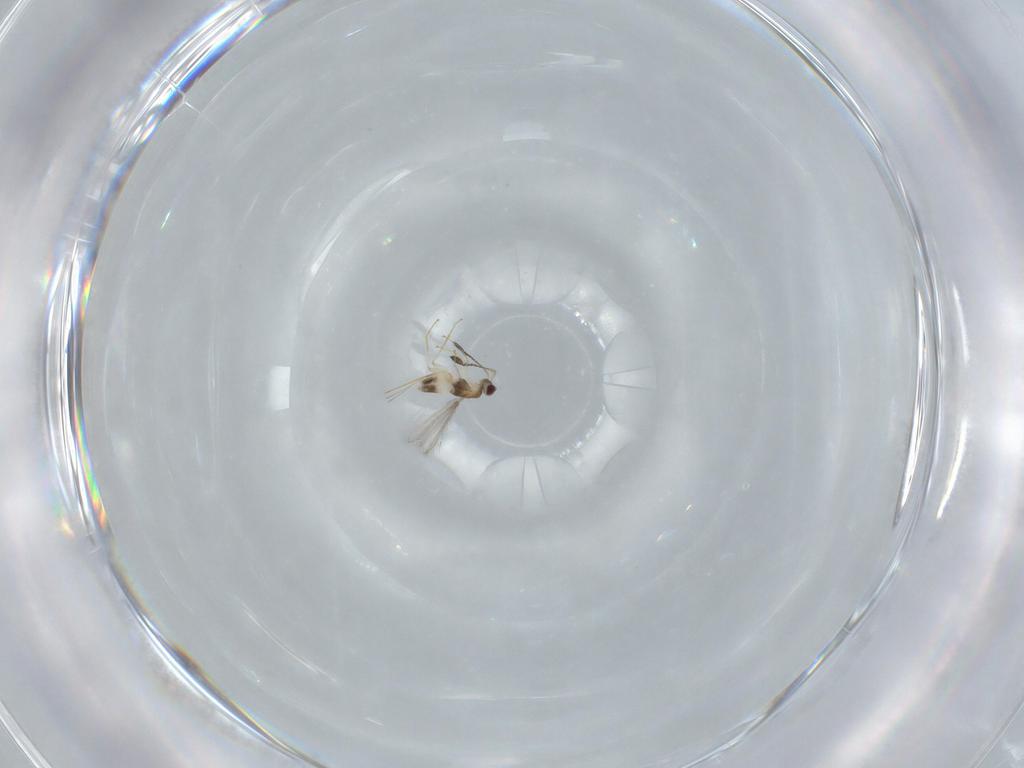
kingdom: Animalia
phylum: Arthropoda
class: Insecta
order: Hymenoptera
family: Mymaridae
